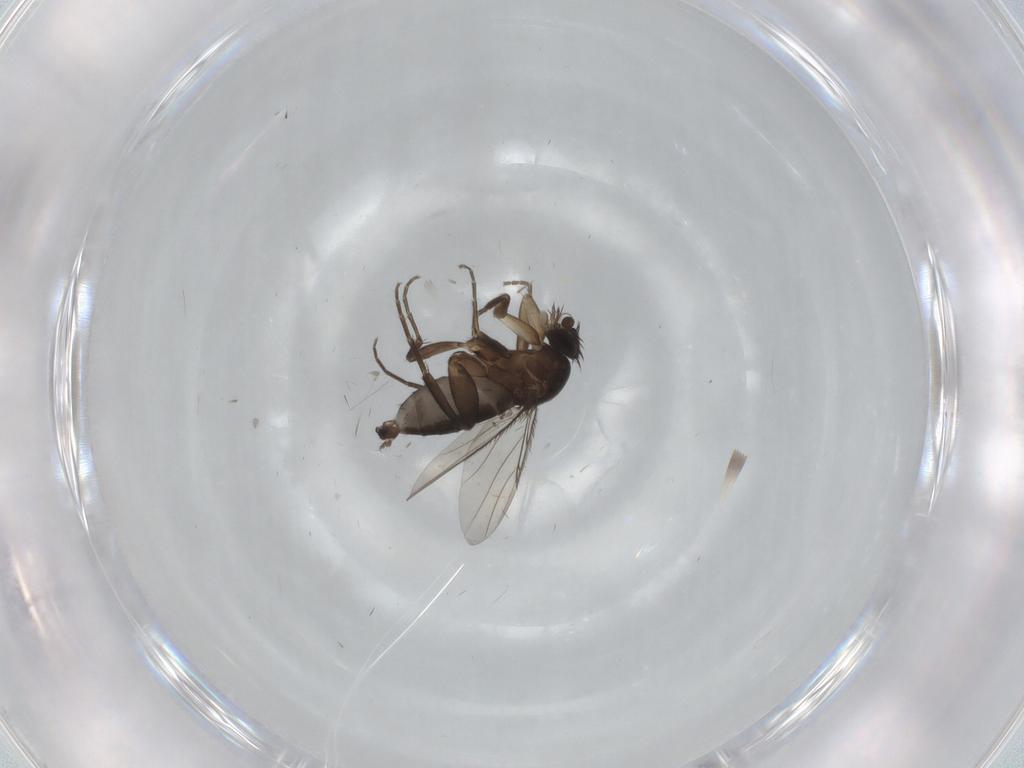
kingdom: Animalia
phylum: Arthropoda
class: Insecta
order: Diptera
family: Phoridae
